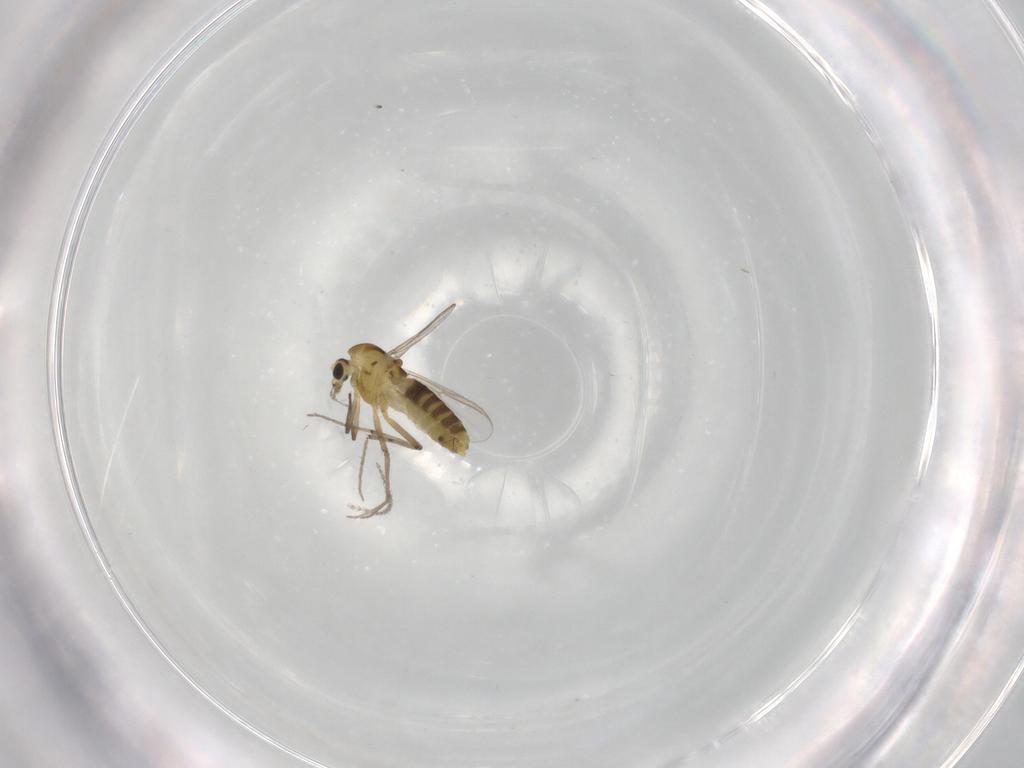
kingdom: Animalia
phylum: Arthropoda
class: Insecta
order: Diptera
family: Chironomidae
